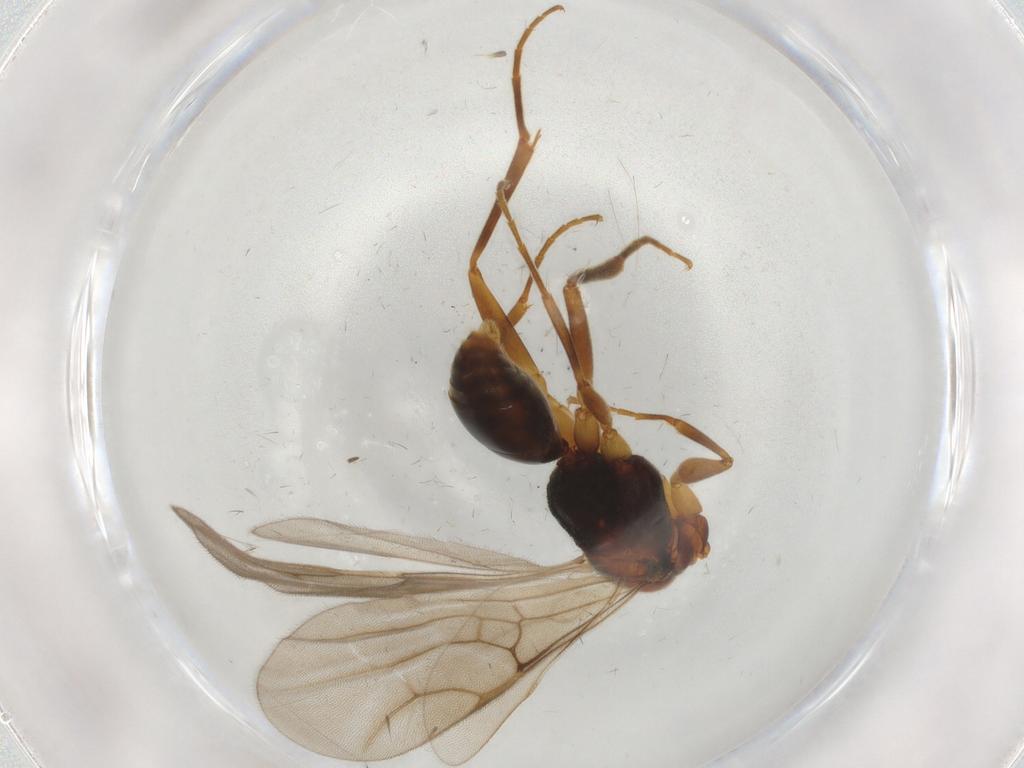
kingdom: Animalia
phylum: Arthropoda
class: Insecta
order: Hymenoptera
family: Embolemidae
